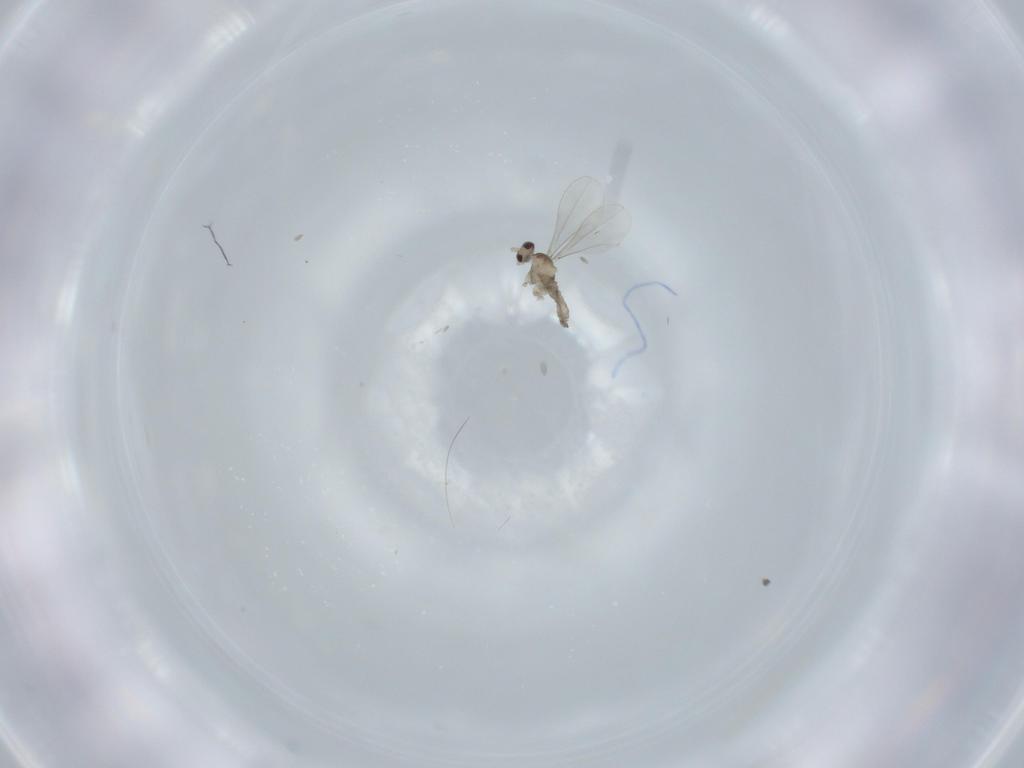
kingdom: Animalia
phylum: Arthropoda
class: Insecta
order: Diptera
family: Cecidomyiidae
